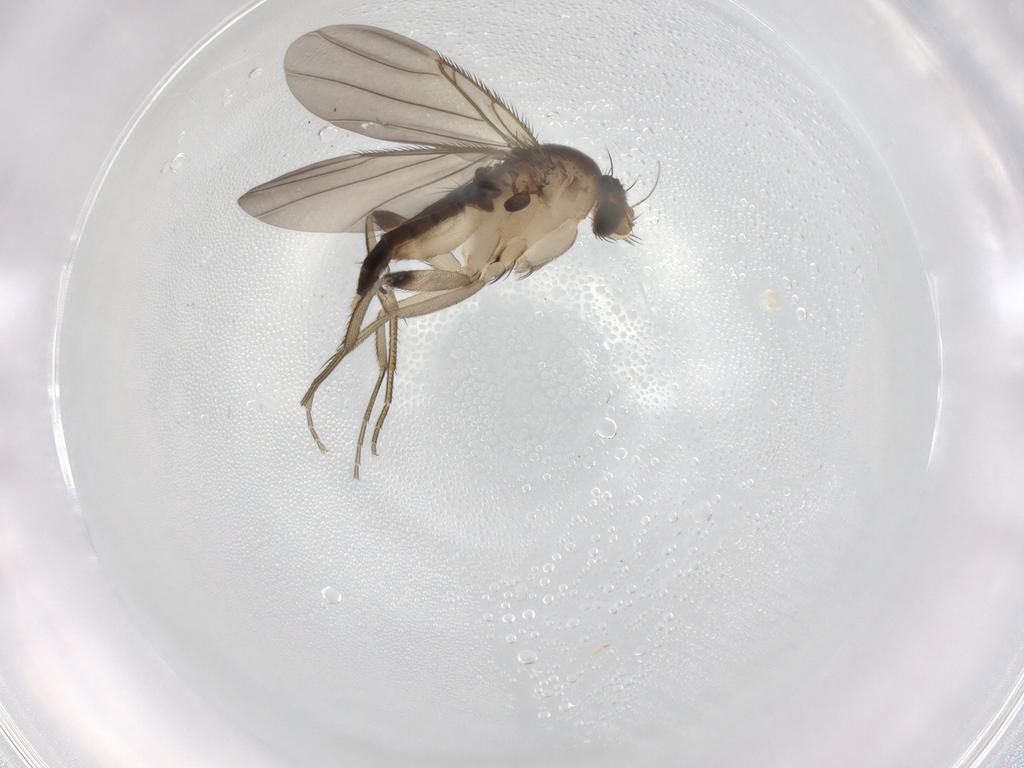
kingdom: Animalia
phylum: Arthropoda
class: Insecta
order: Diptera
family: Phoridae
